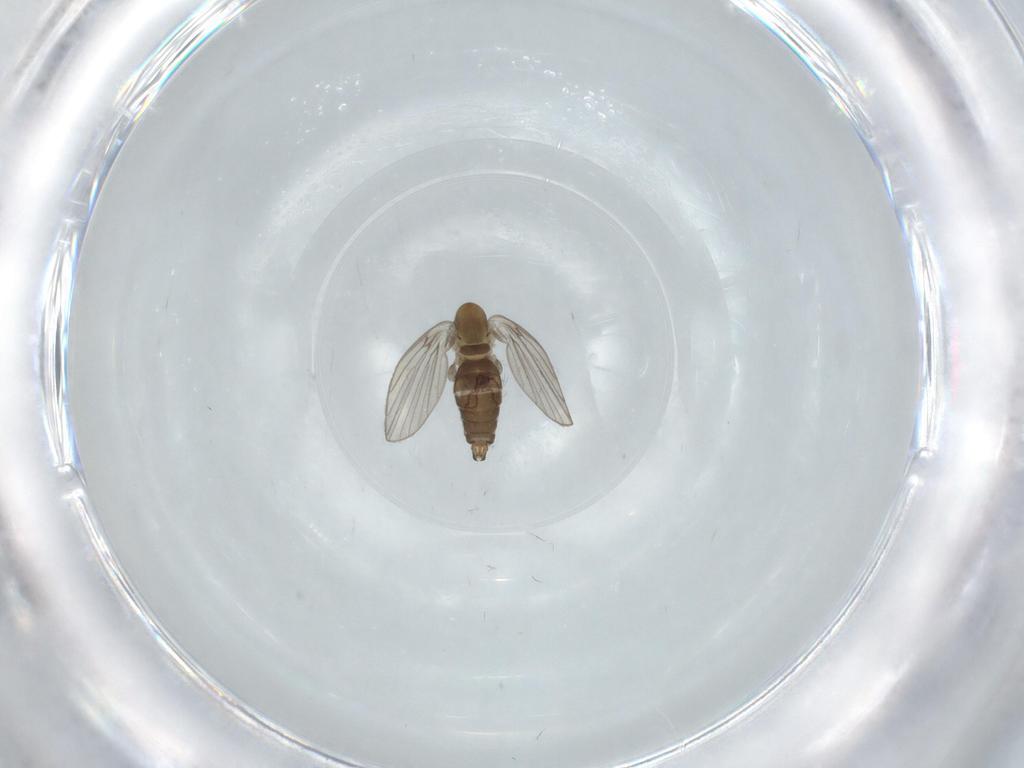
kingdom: Animalia
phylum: Arthropoda
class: Insecta
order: Diptera
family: Cecidomyiidae
